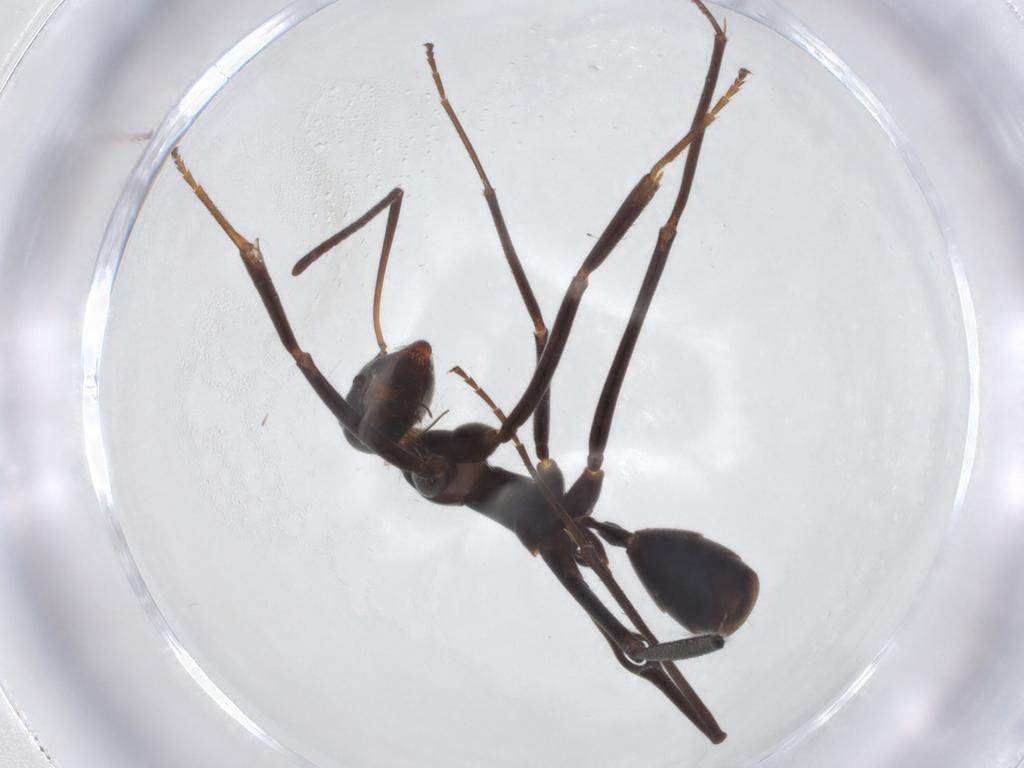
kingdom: Animalia
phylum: Arthropoda
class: Insecta
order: Hymenoptera
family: Formicidae
